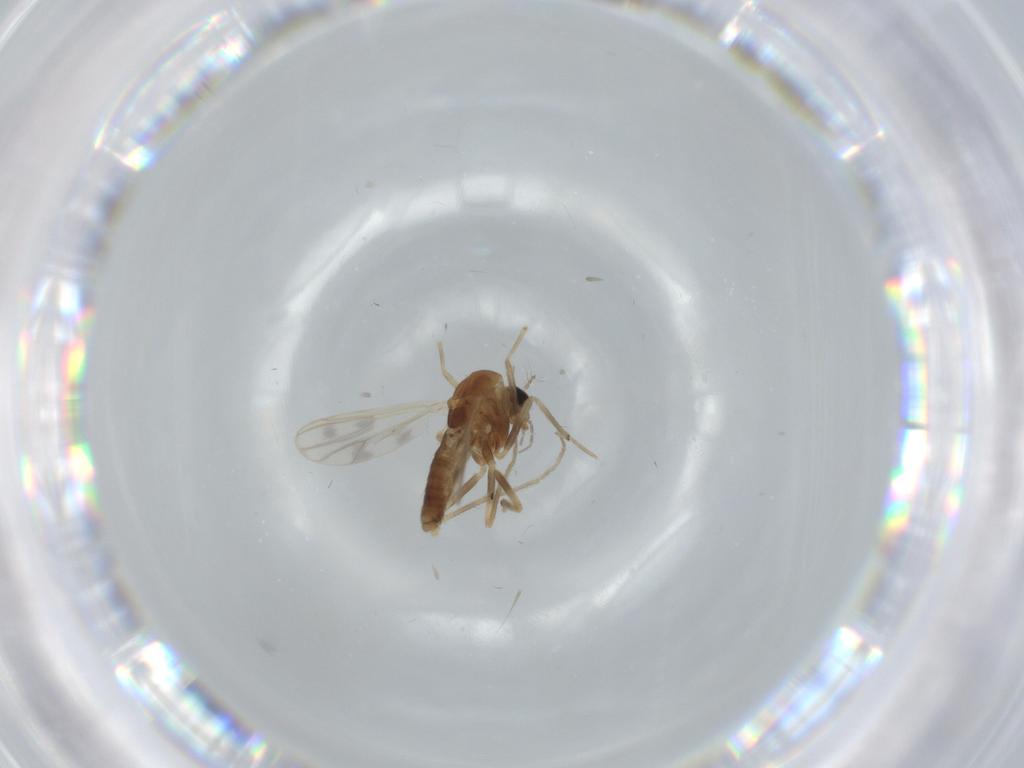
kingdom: Animalia
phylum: Arthropoda
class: Insecta
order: Diptera
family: Chironomidae
